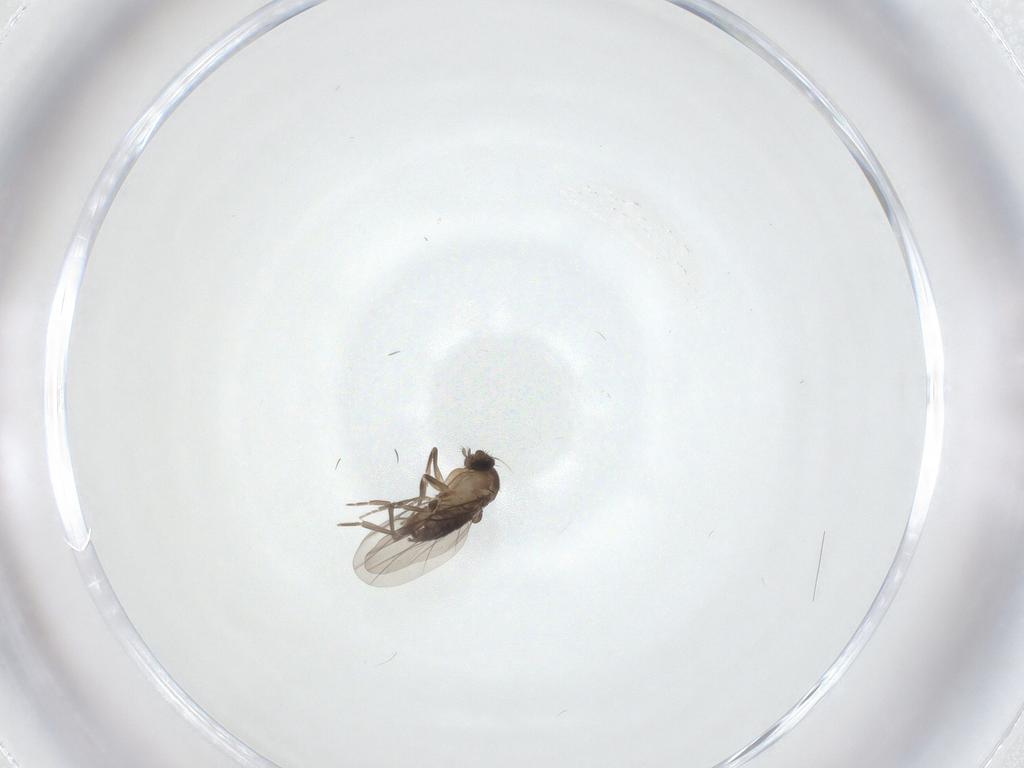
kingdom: Animalia
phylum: Arthropoda
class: Insecta
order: Diptera
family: Phoridae
